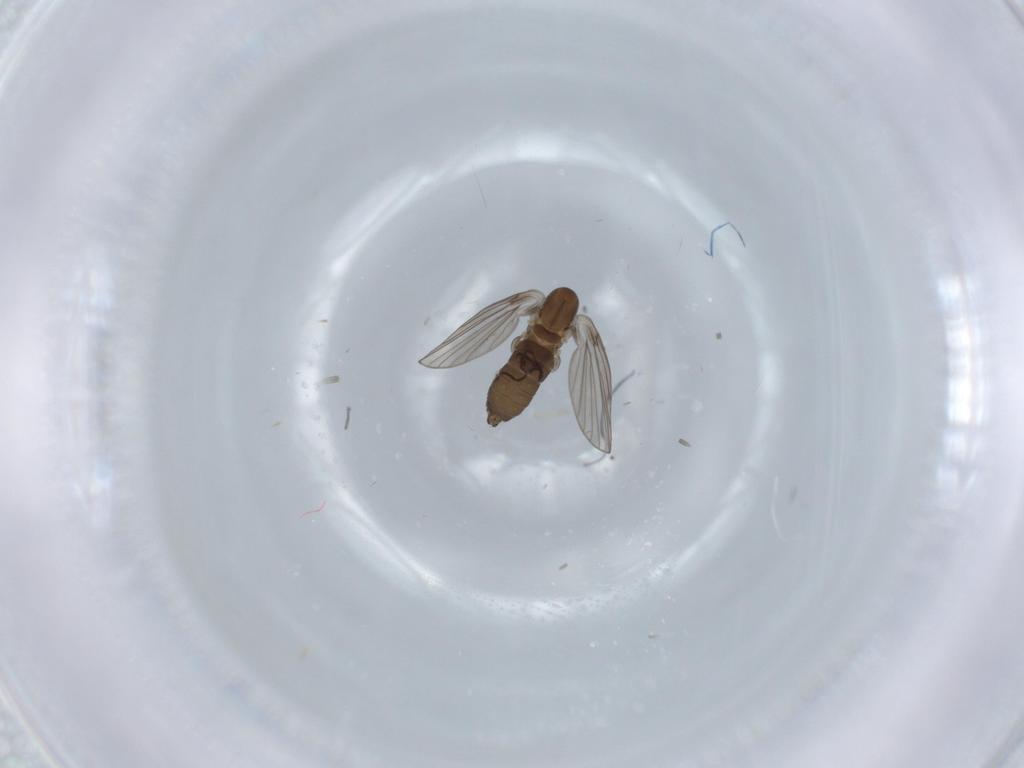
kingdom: Animalia
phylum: Arthropoda
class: Insecta
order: Diptera
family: Psychodidae
